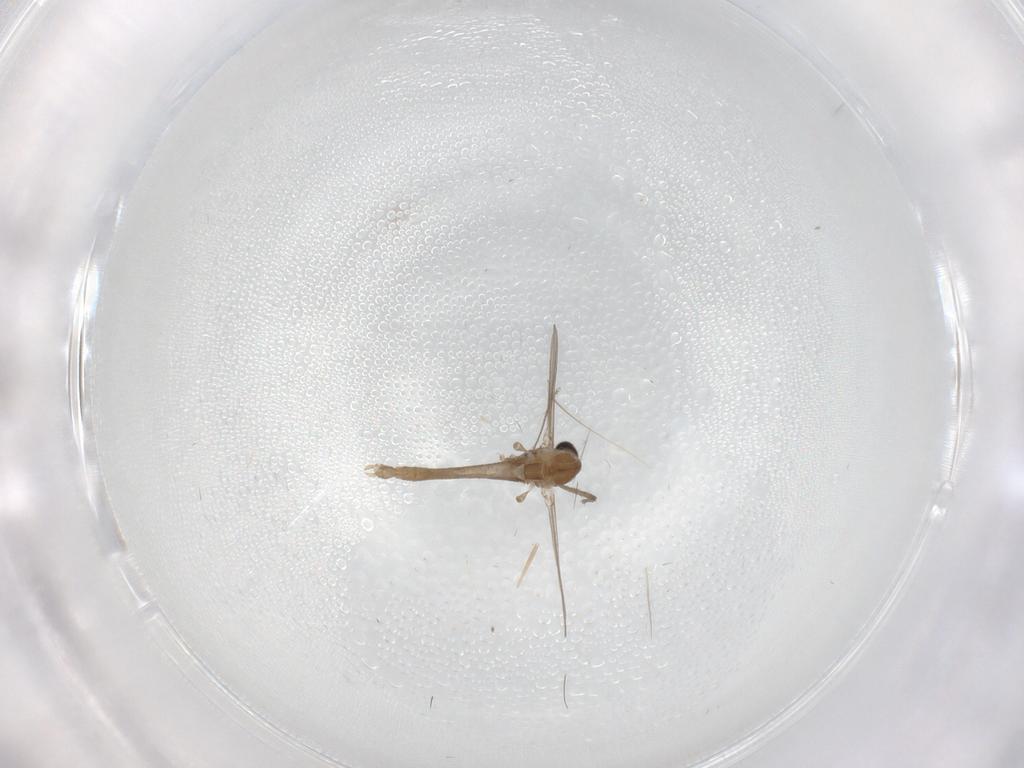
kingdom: Animalia
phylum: Arthropoda
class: Insecta
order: Diptera
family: Chironomidae
